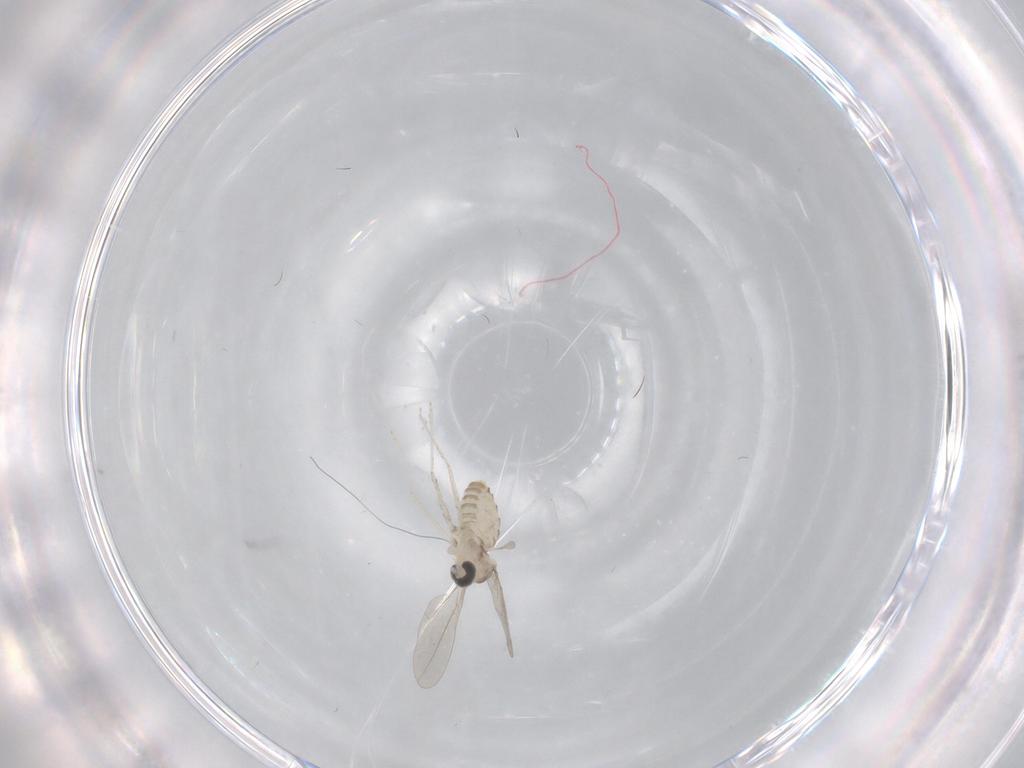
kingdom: Animalia
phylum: Arthropoda
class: Insecta
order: Diptera
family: Cecidomyiidae
